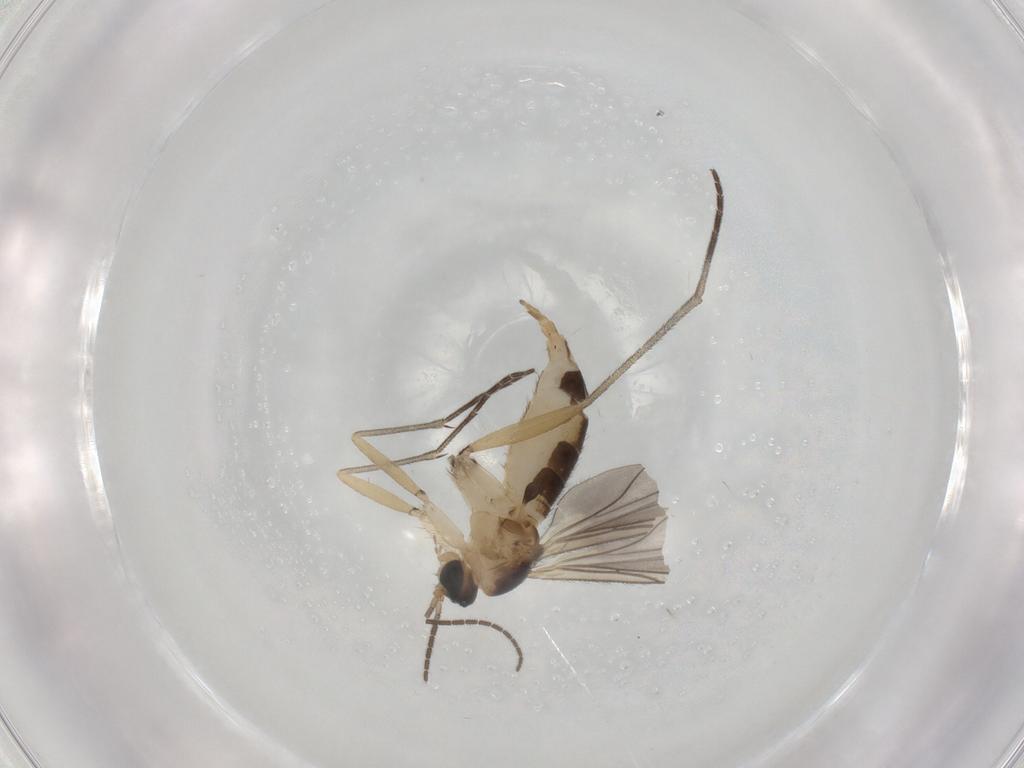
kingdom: Animalia
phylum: Arthropoda
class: Insecta
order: Diptera
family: Sciaridae
